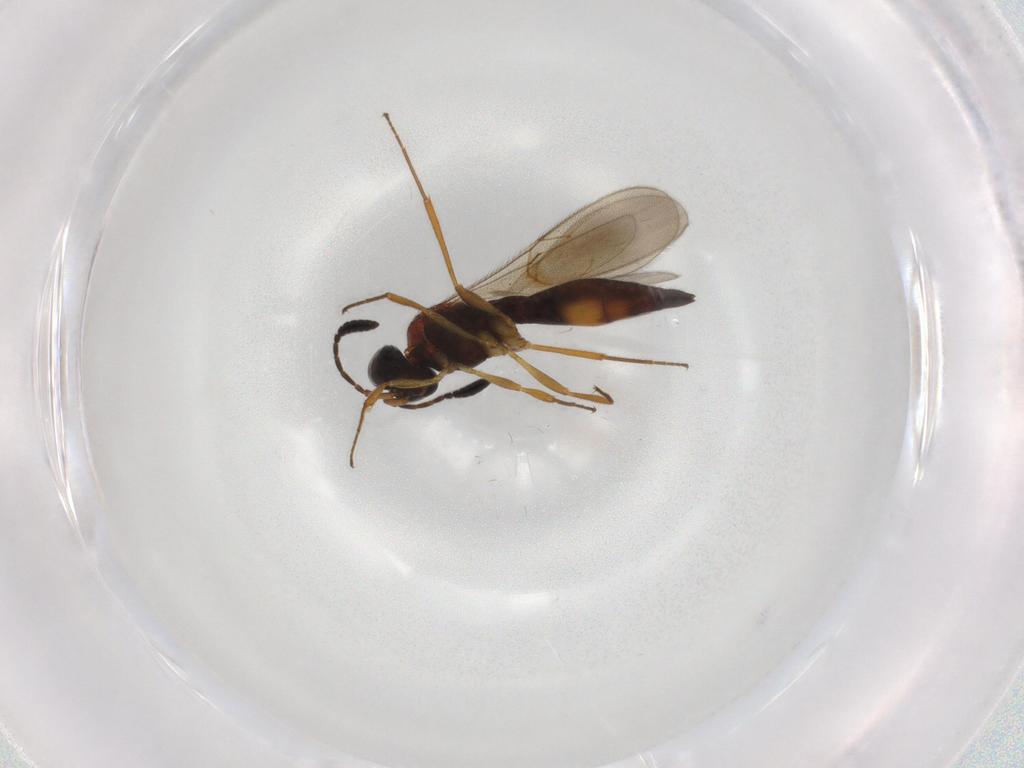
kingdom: Animalia
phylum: Arthropoda
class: Insecta
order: Hymenoptera
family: Scelionidae
